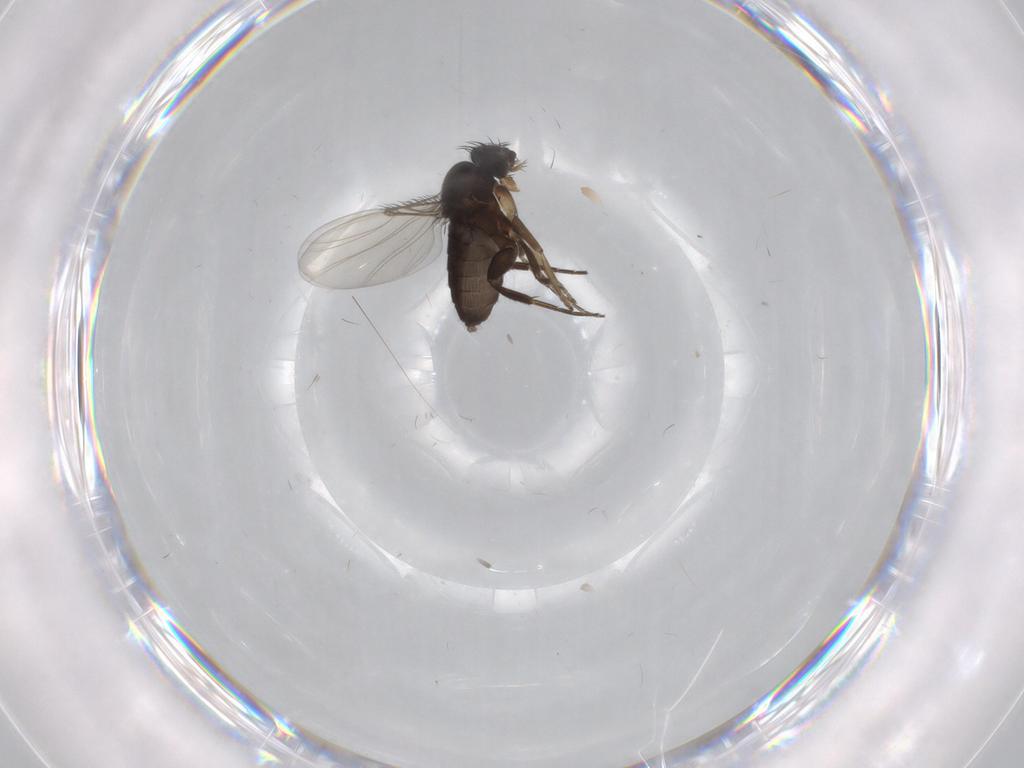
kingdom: Animalia
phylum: Arthropoda
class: Insecta
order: Diptera
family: Phoridae
